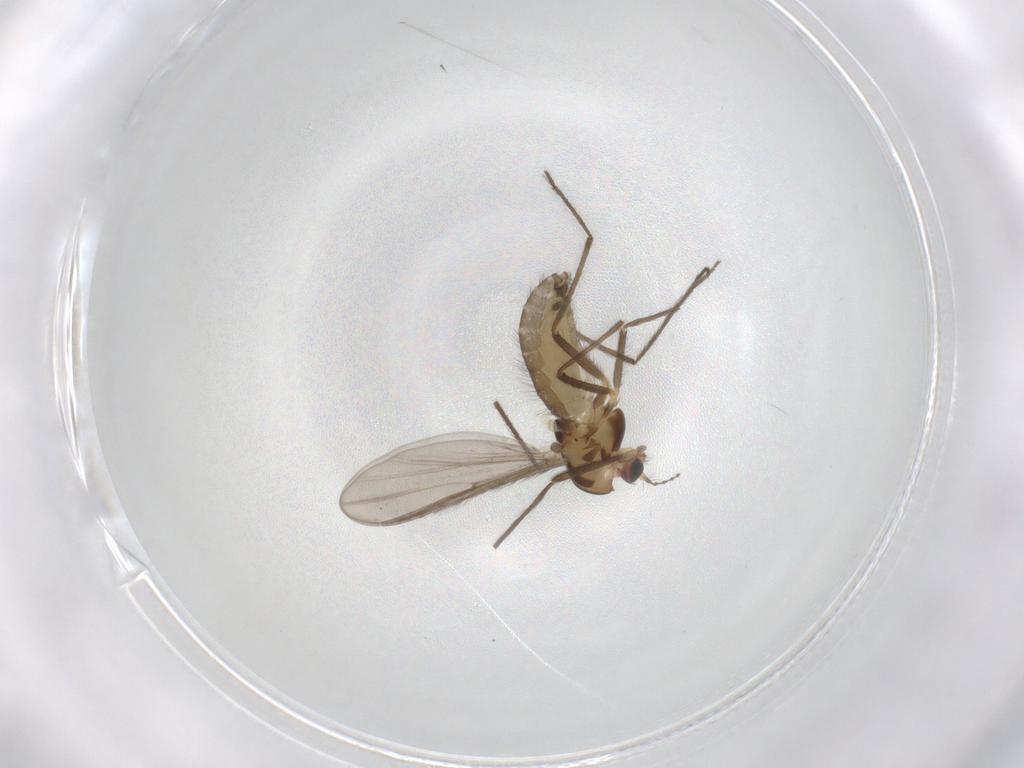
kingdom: Animalia
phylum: Arthropoda
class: Insecta
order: Diptera
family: Chironomidae
